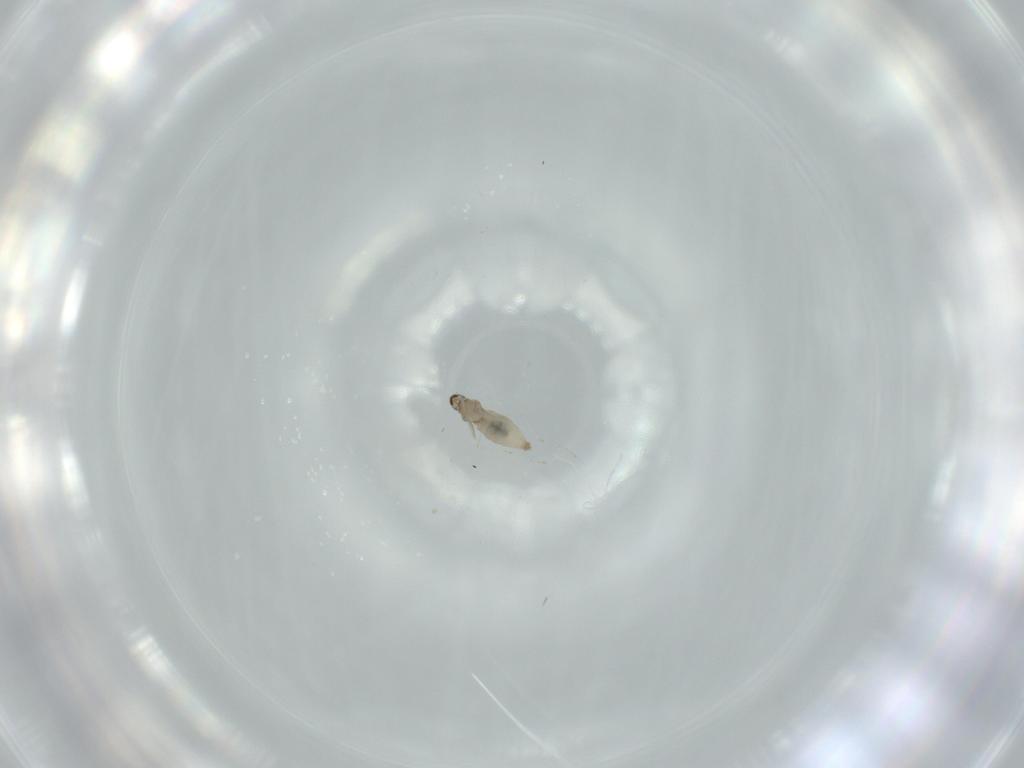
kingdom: Animalia
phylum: Arthropoda
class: Insecta
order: Diptera
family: Ceratopogonidae
